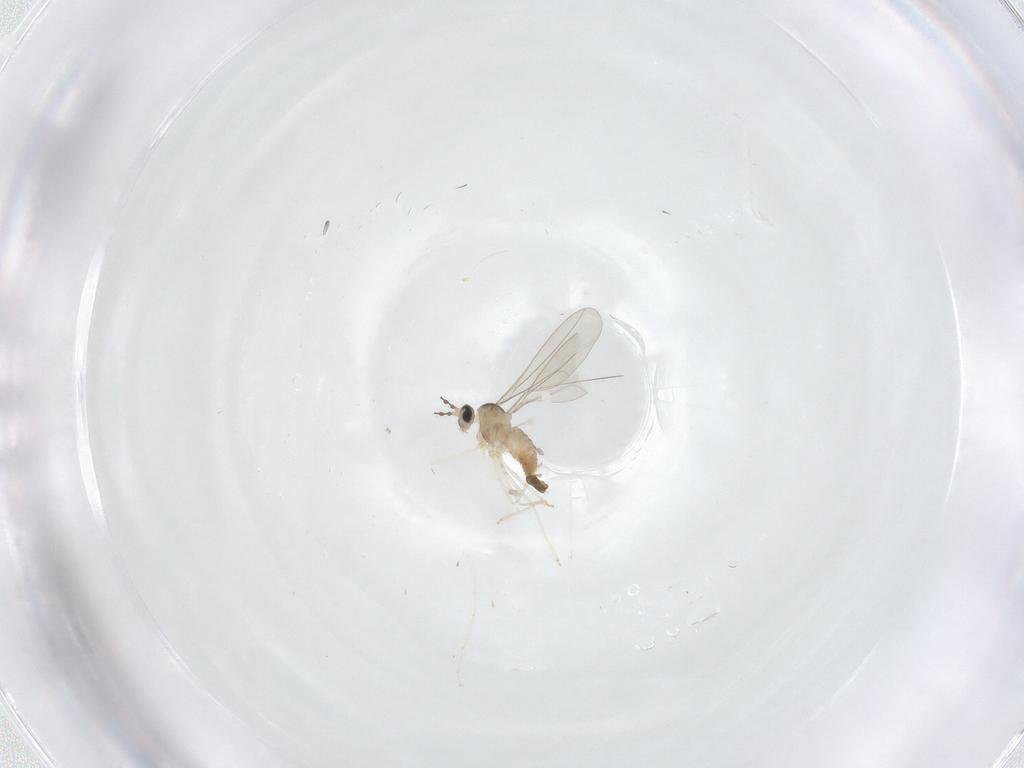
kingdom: Animalia
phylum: Arthropoda
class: Insecta
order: Diptera
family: Cecidomyiidae
